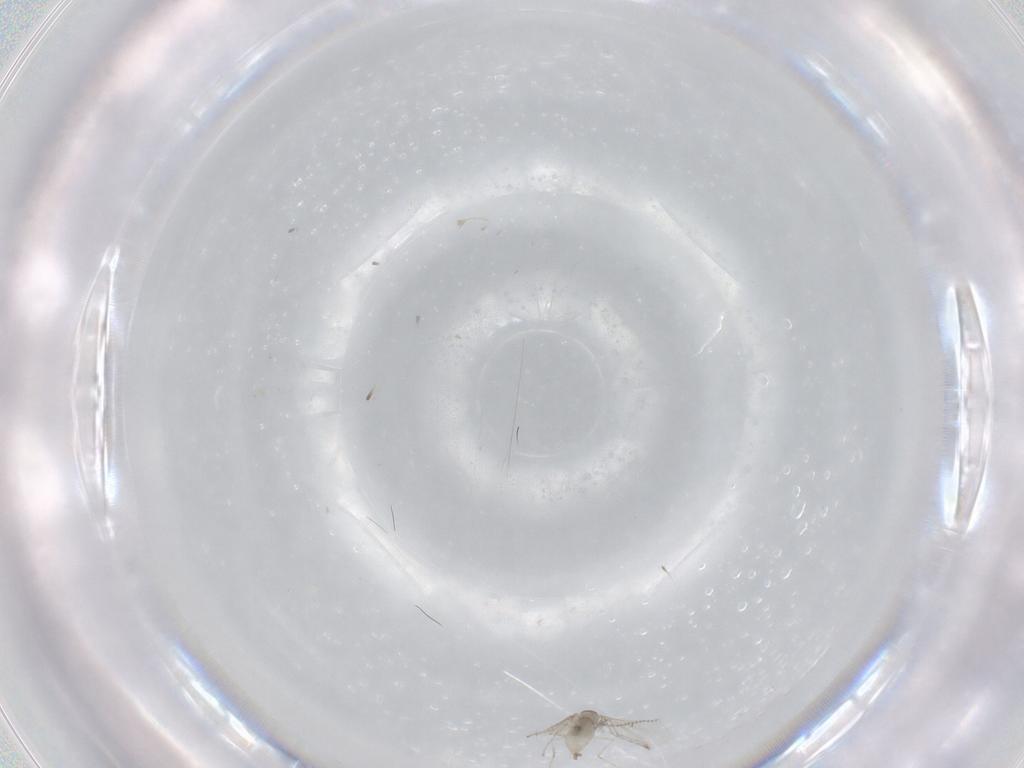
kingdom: Animalia
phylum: Arthropoda
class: Insecta
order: Diptera
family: Cecidomyiidae
